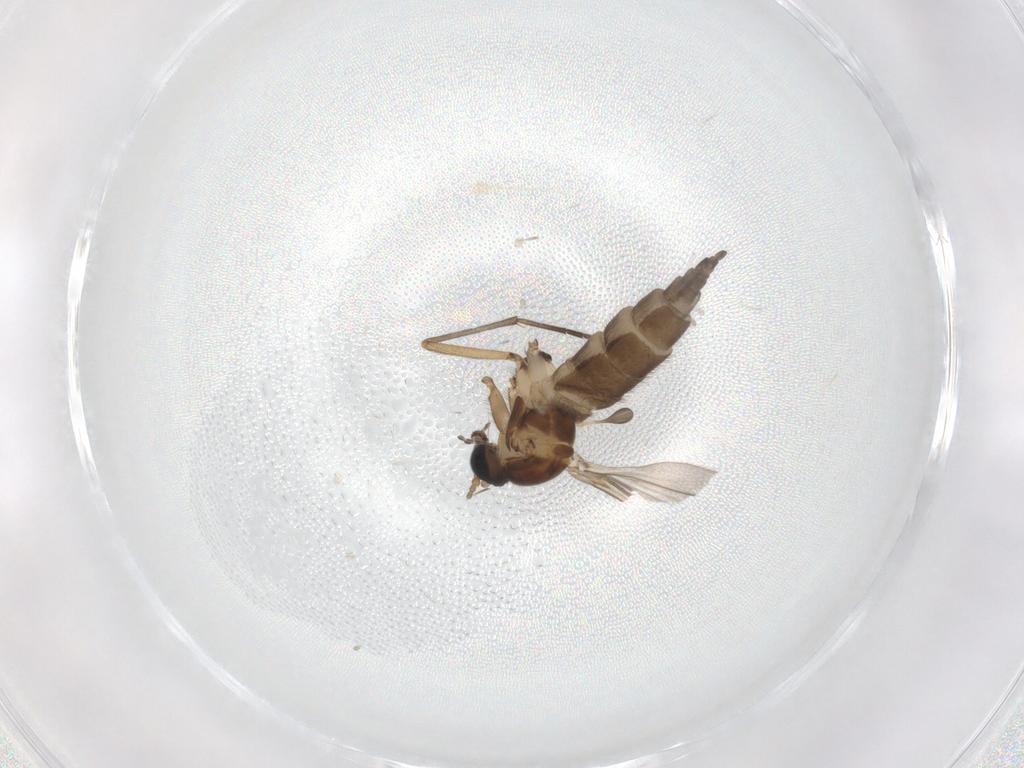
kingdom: Animalia
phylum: Arthropoda
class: Insecta
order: Diptera
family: Sciaridae
